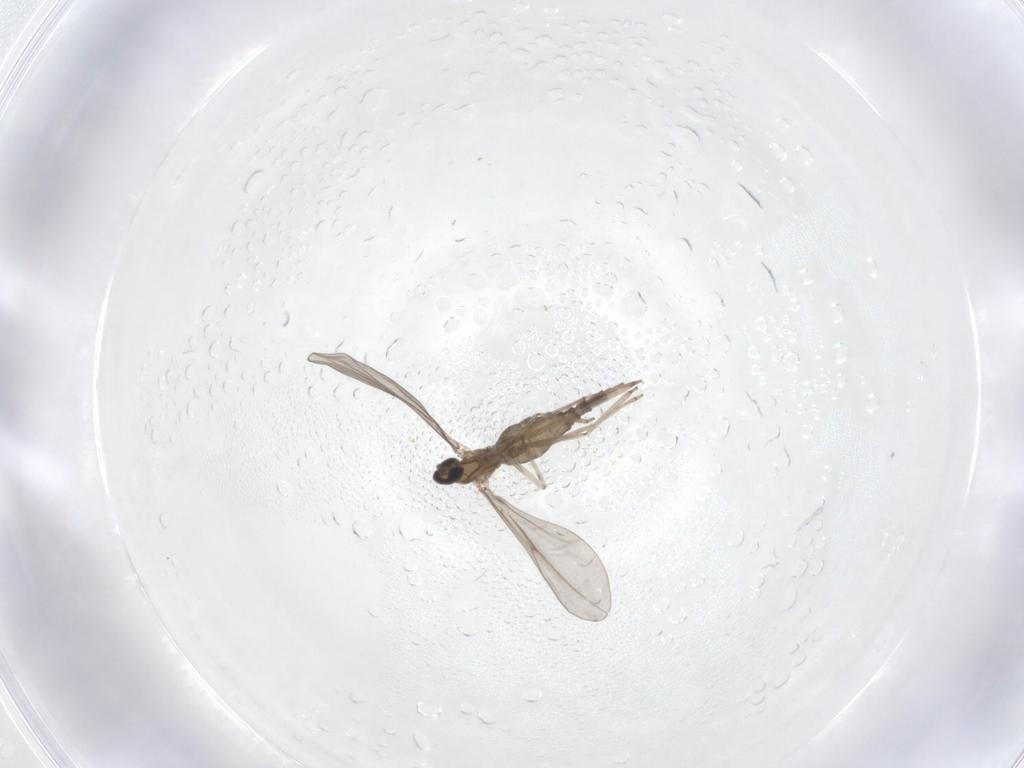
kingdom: Animalia
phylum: Arthropoda
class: Insecta
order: Diptera
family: Cecidomyiidae
